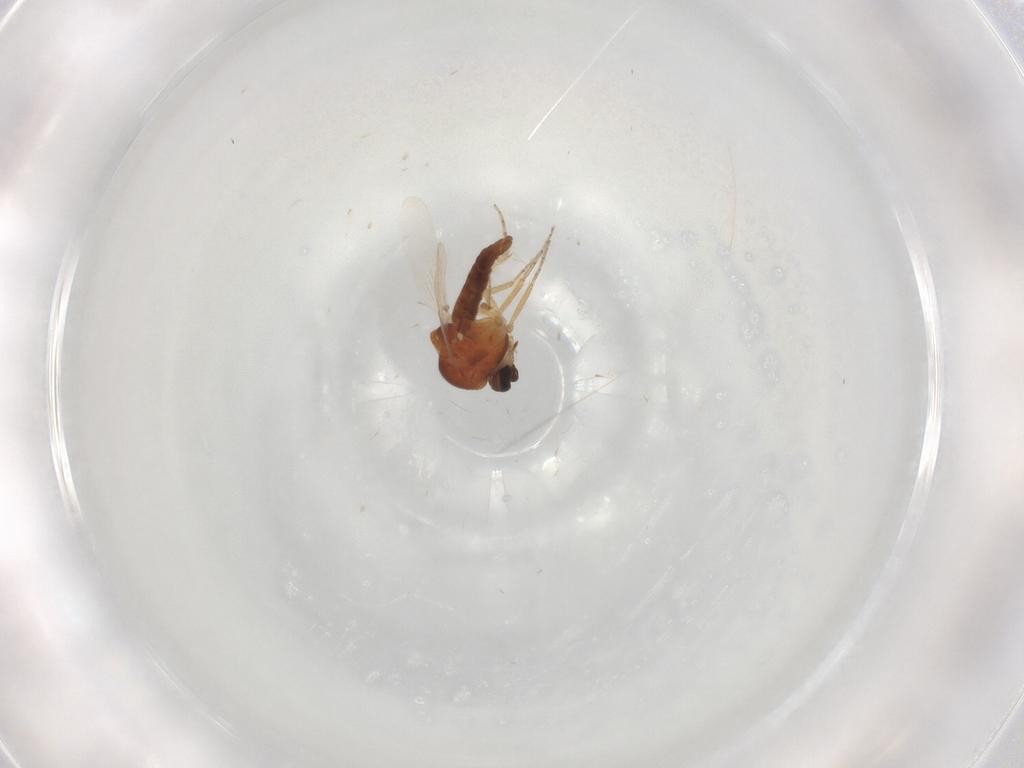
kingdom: Animalia
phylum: Arthropoda
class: Insecta
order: Diptera
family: Ceratopogonidae
